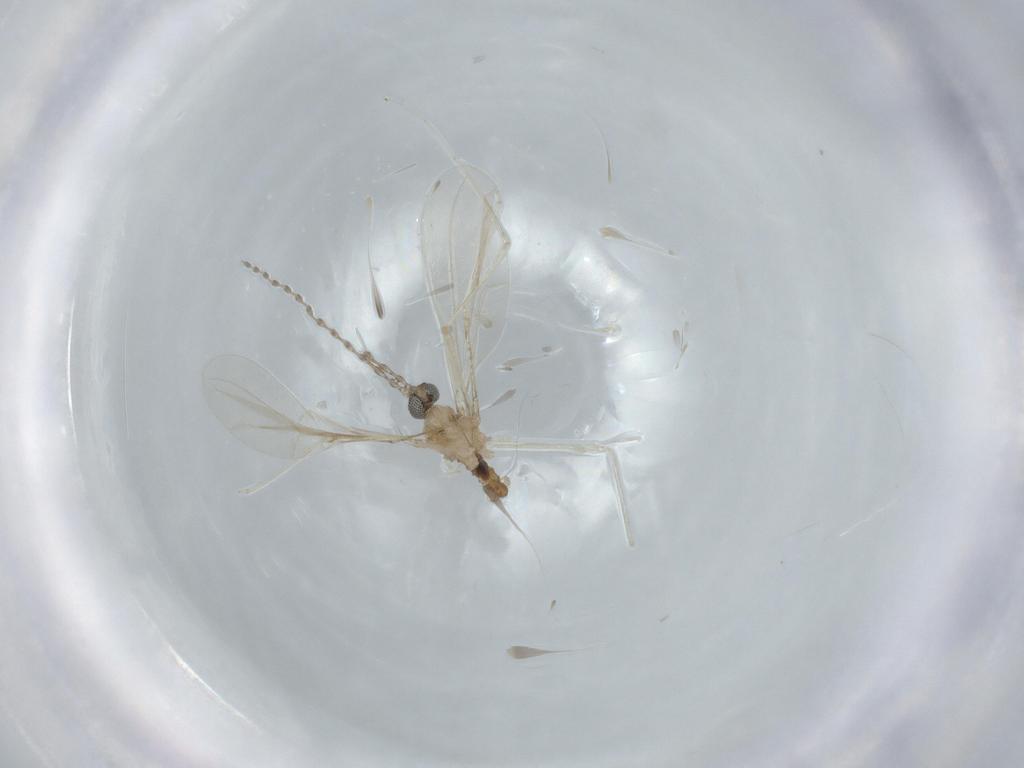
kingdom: Animalia
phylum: Arthropoda
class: Insecta
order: Diptera
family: Cecidomyiidae
